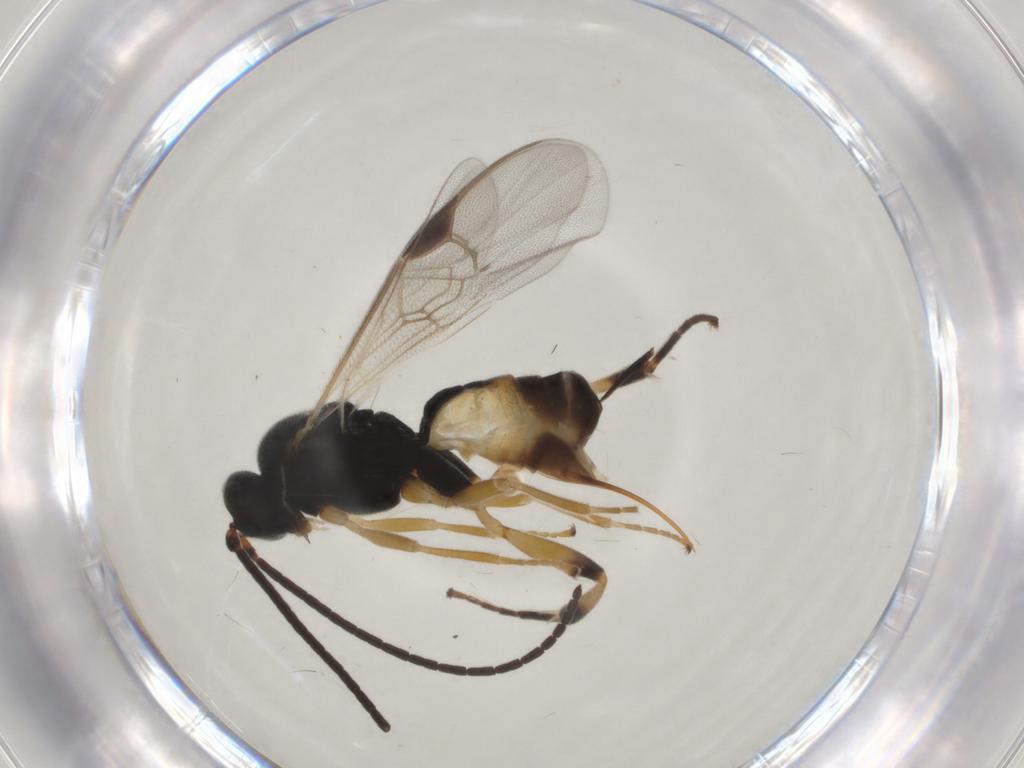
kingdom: Animalia
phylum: Arthropoda
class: Insecta
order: Hymenoptera
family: Braconidae
